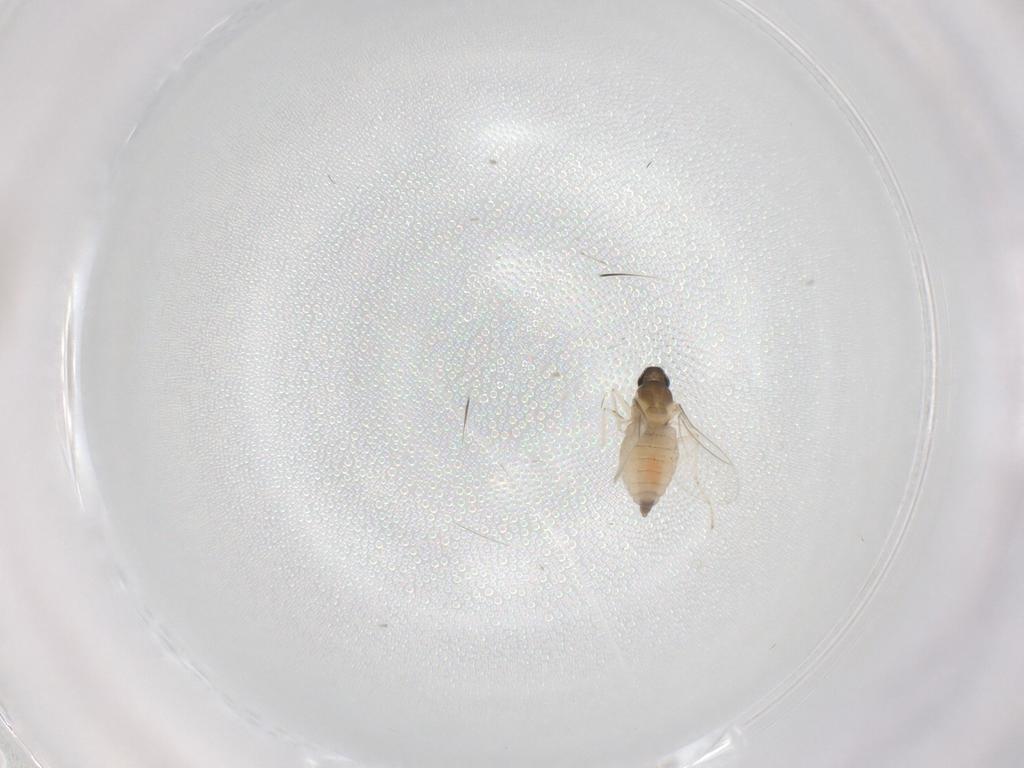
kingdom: Animalia
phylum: Arthropoda
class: Insecta
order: Diptera
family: Cecidomyiidae
